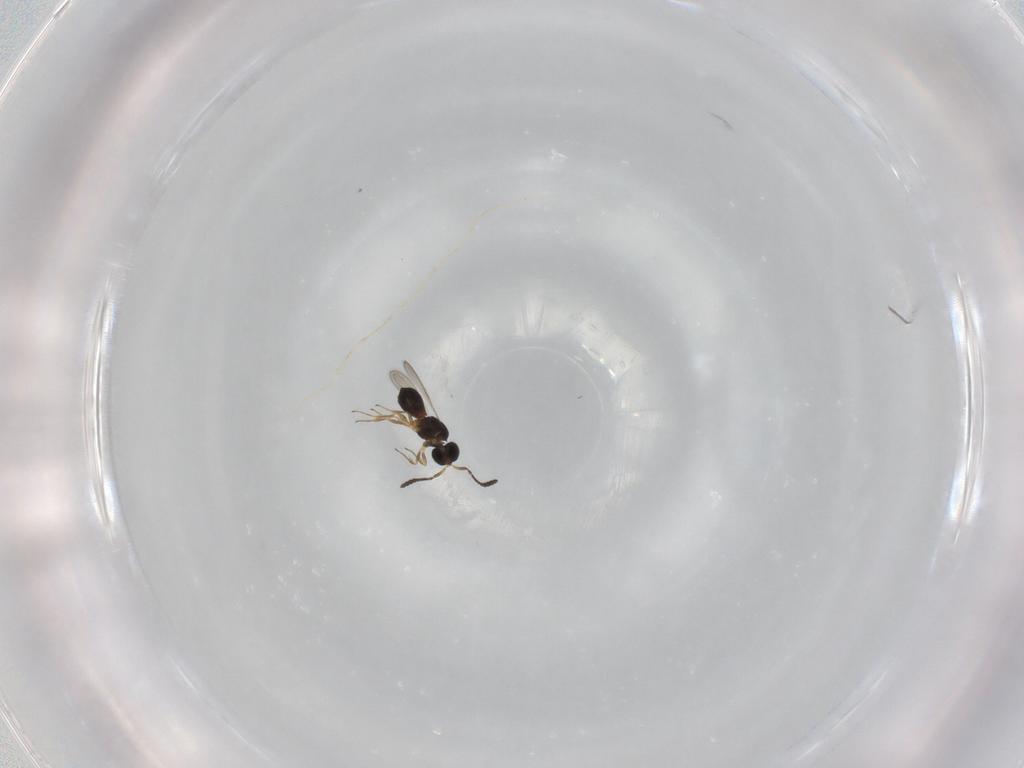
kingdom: Animalia
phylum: Arthropoda
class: Insecta
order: Hymenoptera
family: Scelionidae
